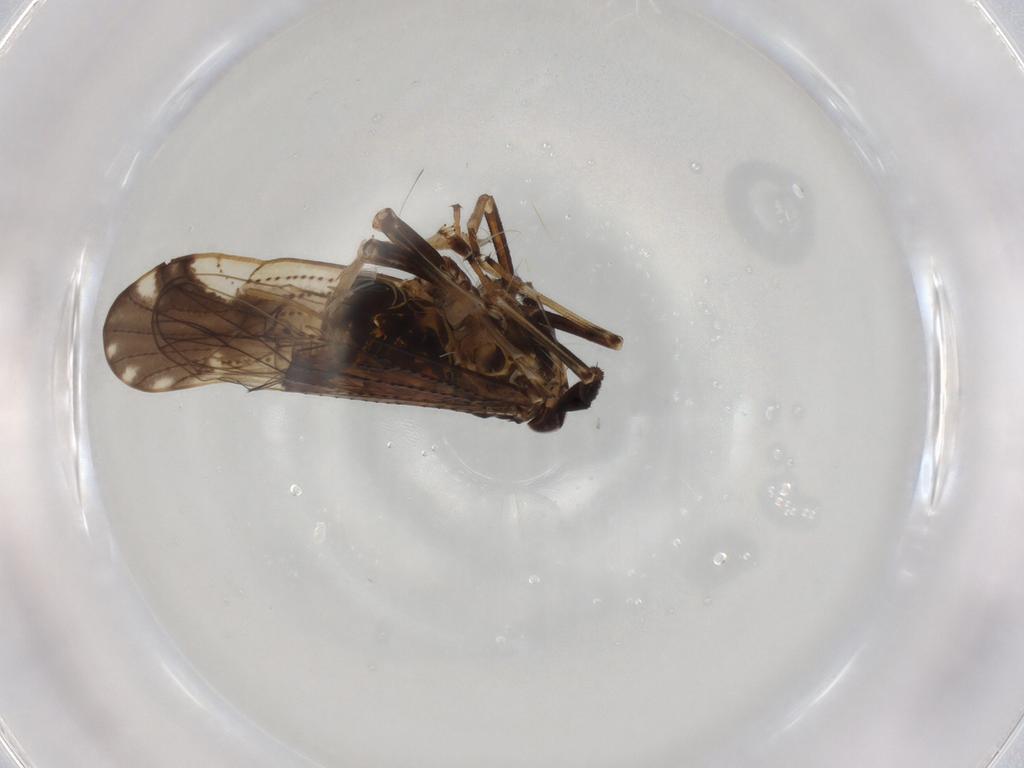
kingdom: Animalia
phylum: Arthropoda
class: Insecta
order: Hemiptera
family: Delphacidae
